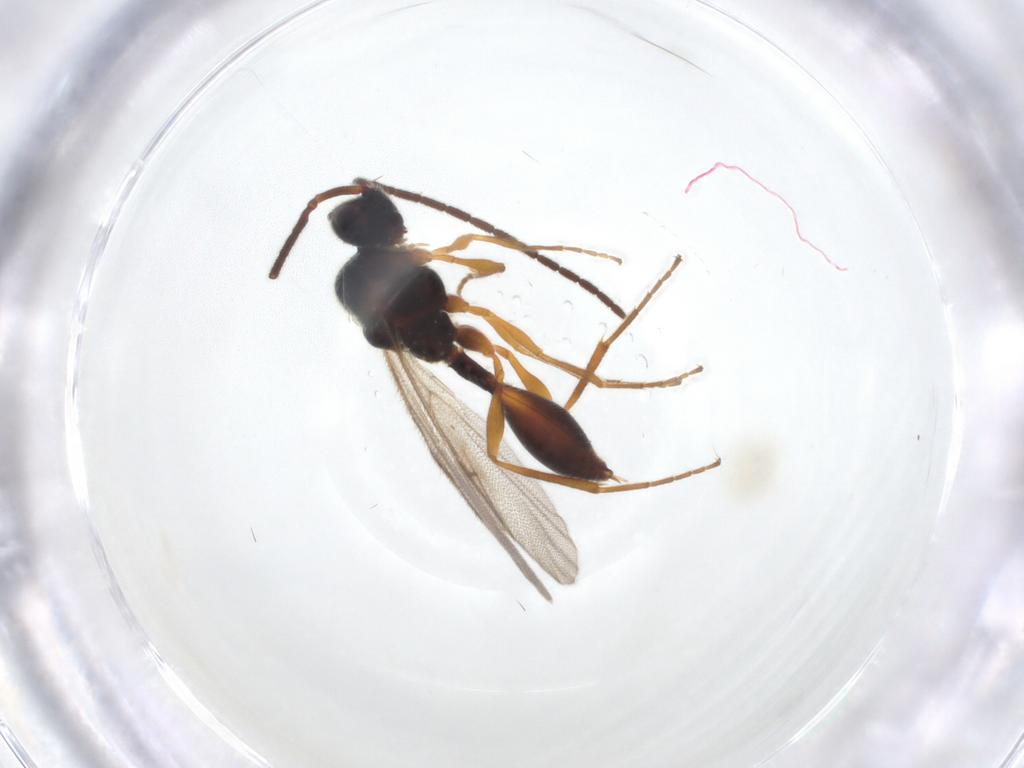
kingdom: Animalia
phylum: Arthropoda
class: Insecta
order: Hymenoptera
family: Diapriidae
